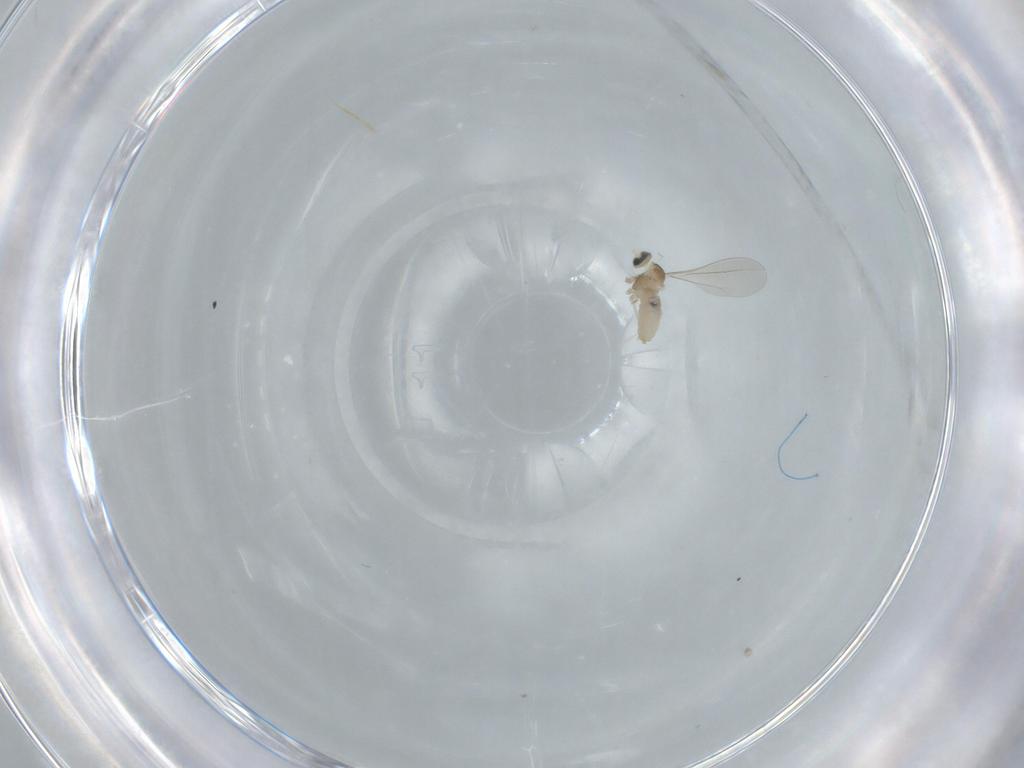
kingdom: Animalia
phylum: Arthropoda
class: Insecta
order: Diptera
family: Cecidomyiidae
